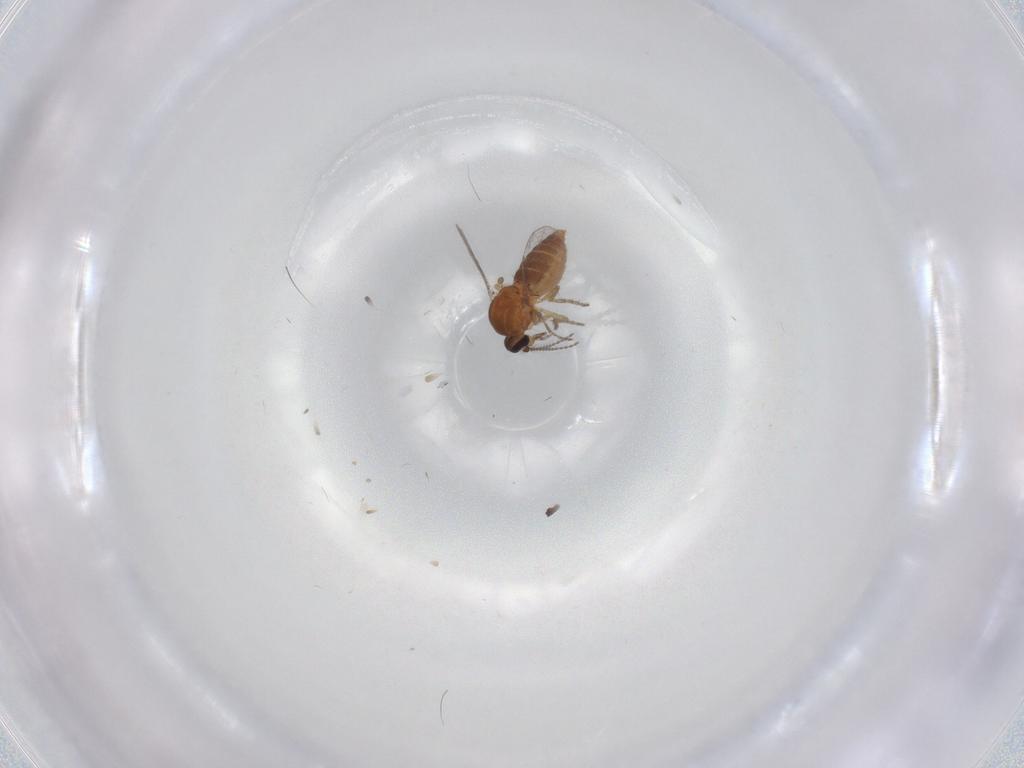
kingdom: Animalia
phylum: Arthropoda
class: Insecta
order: Diptera
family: Ceratopogonidae
